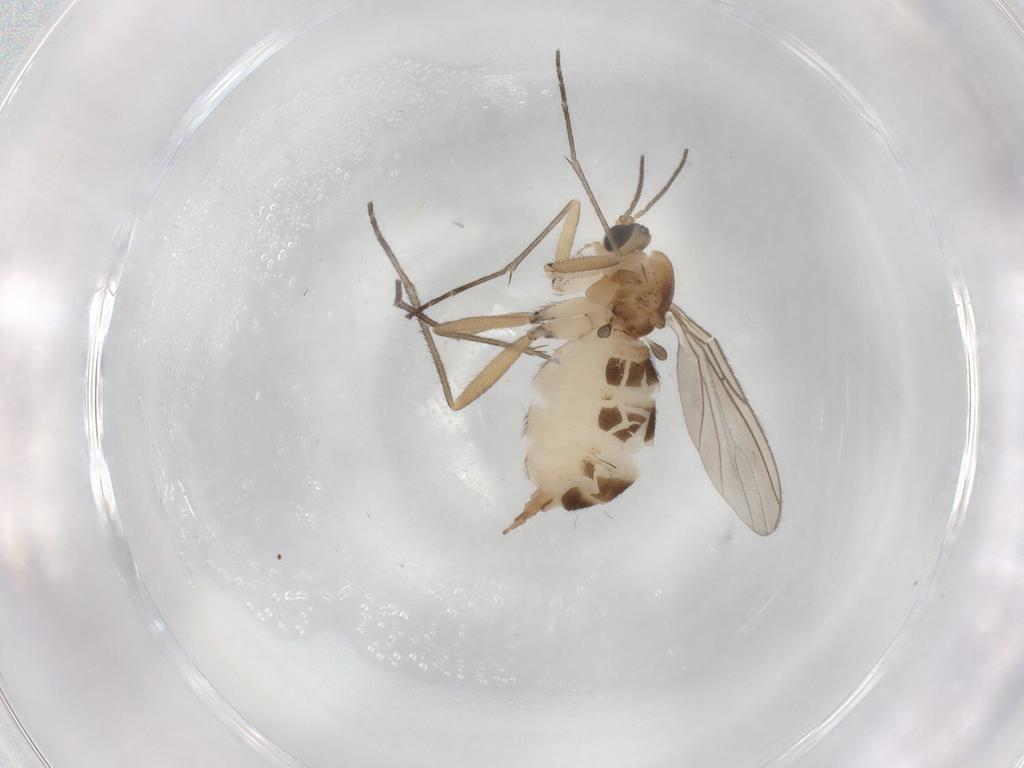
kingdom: Animalia
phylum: Arthropoda
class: Insecta
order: Diptera
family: Sciaridae
